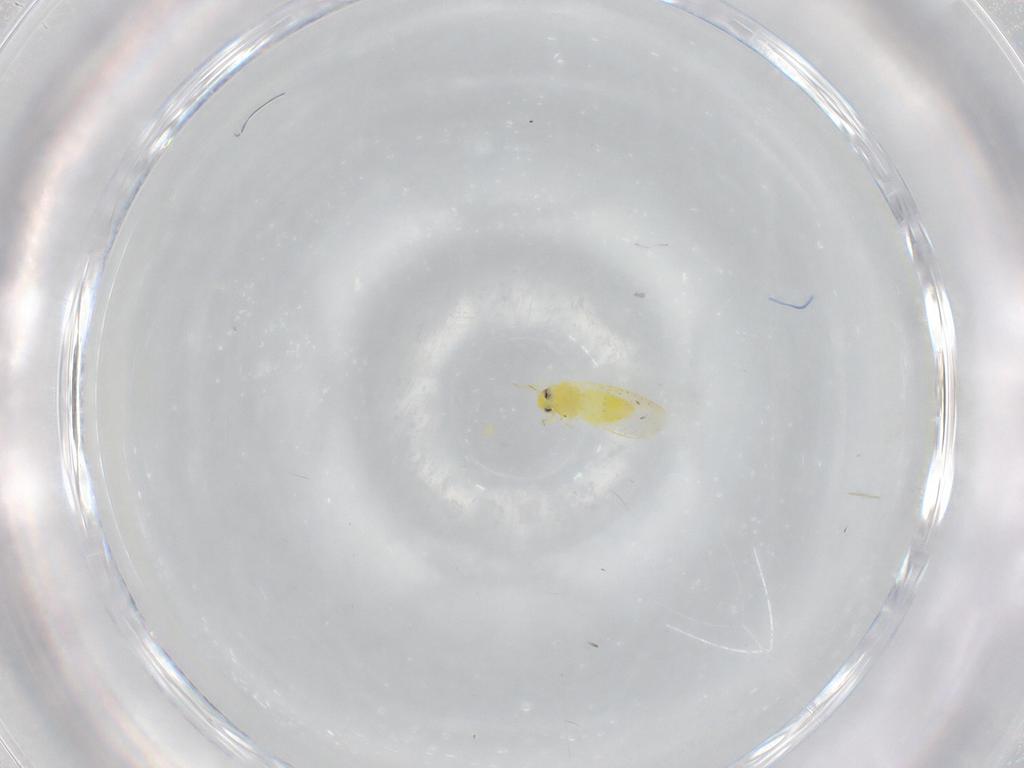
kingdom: Animalia
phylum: Arthropoda
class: Insecta
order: Hemiptera
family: Aleyrodidae
